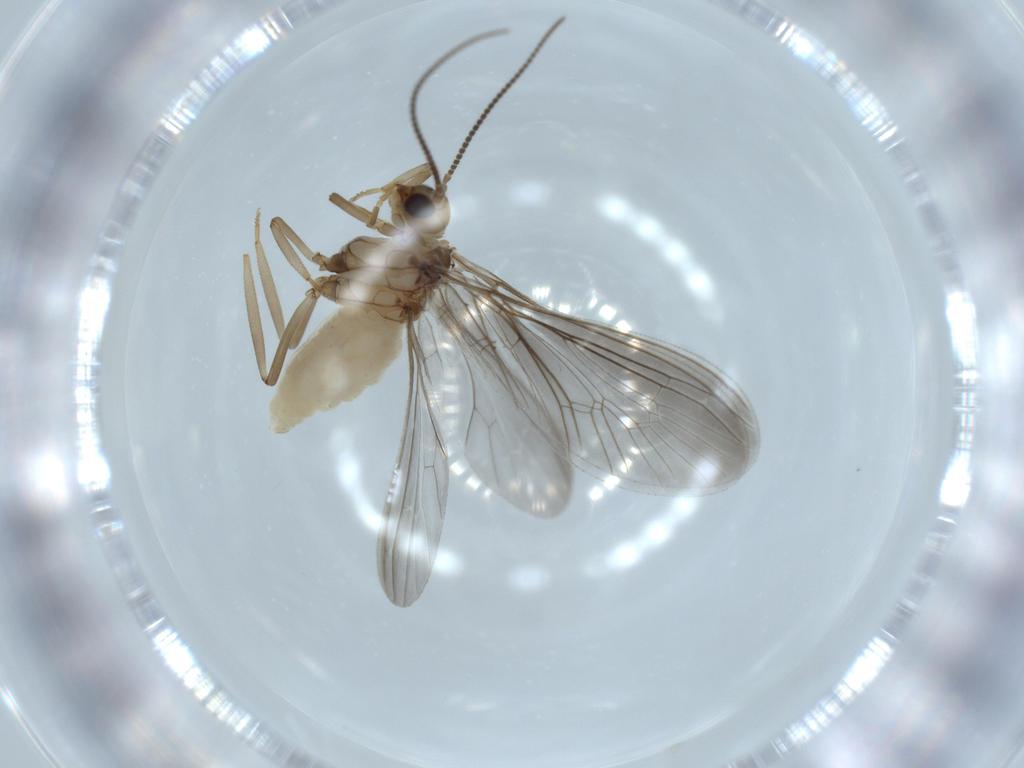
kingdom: Animalia
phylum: Arthropoda
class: Insecta
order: Neuroptera
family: Coniopterygidae
